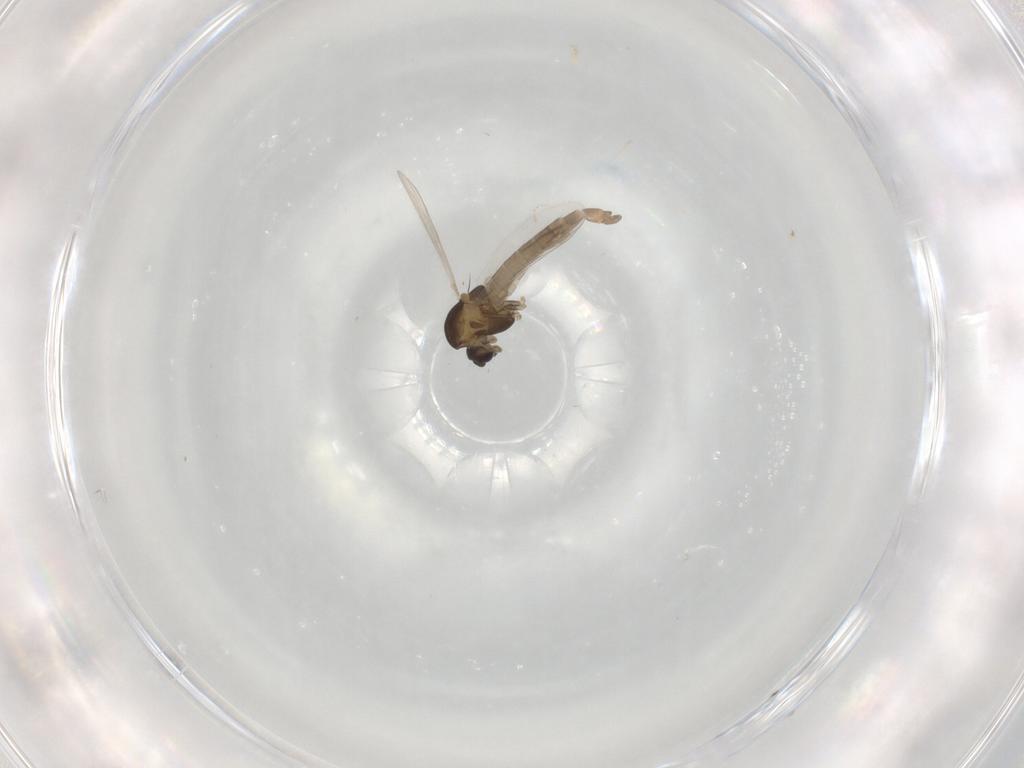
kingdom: Animalia
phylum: Arthropoda
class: Insecta
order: Diptera
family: Chironomidae
